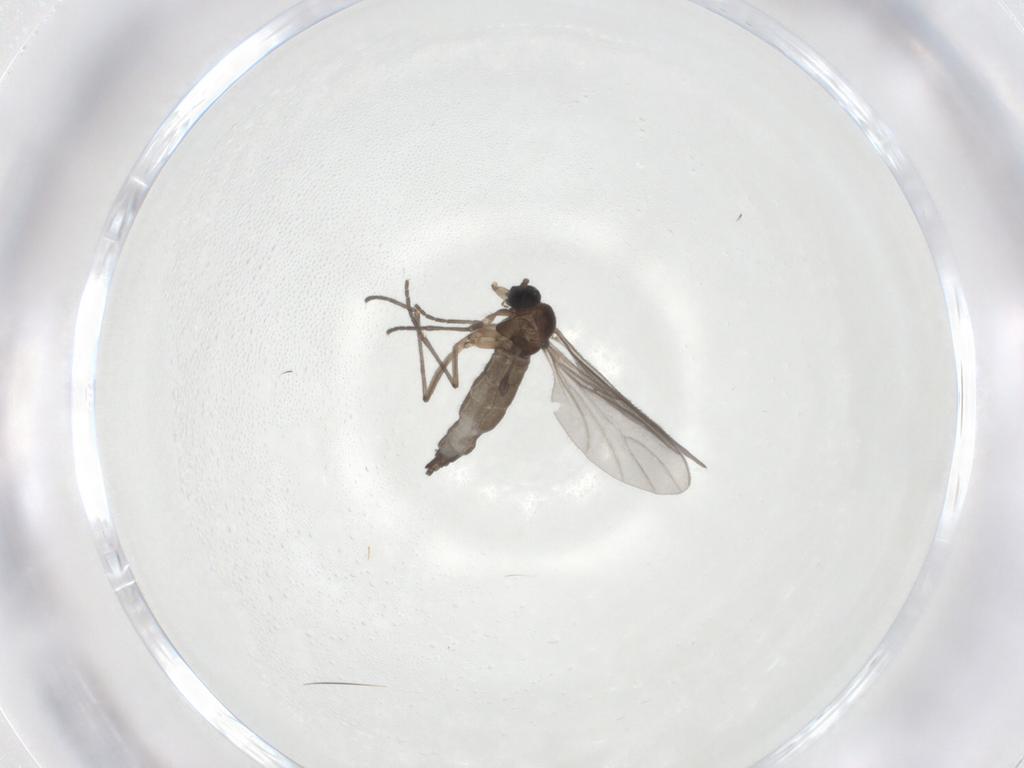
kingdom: Animalia
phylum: Arthropoda
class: Insecta
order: Diptera
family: Sciaridae
